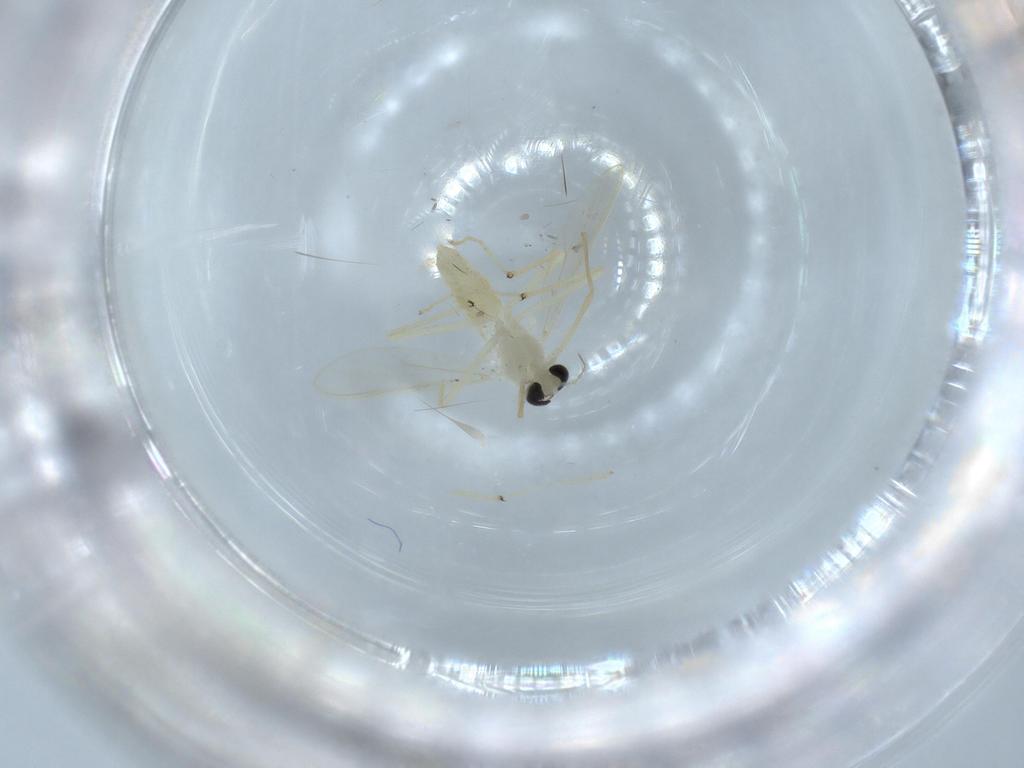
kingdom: Animalia
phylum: Arthropoda
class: Insecta
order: Diptera
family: Chironomidae
